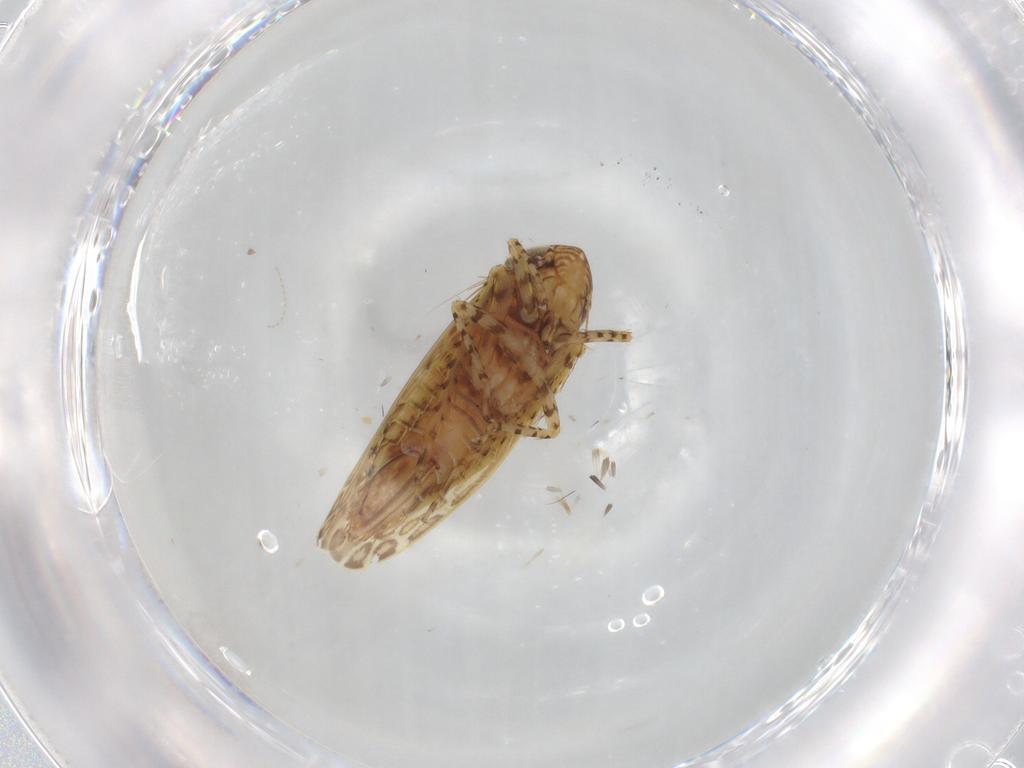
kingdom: Animalia
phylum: Arthropoda
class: Insecta
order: Hemiptera
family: Cicadellidae
